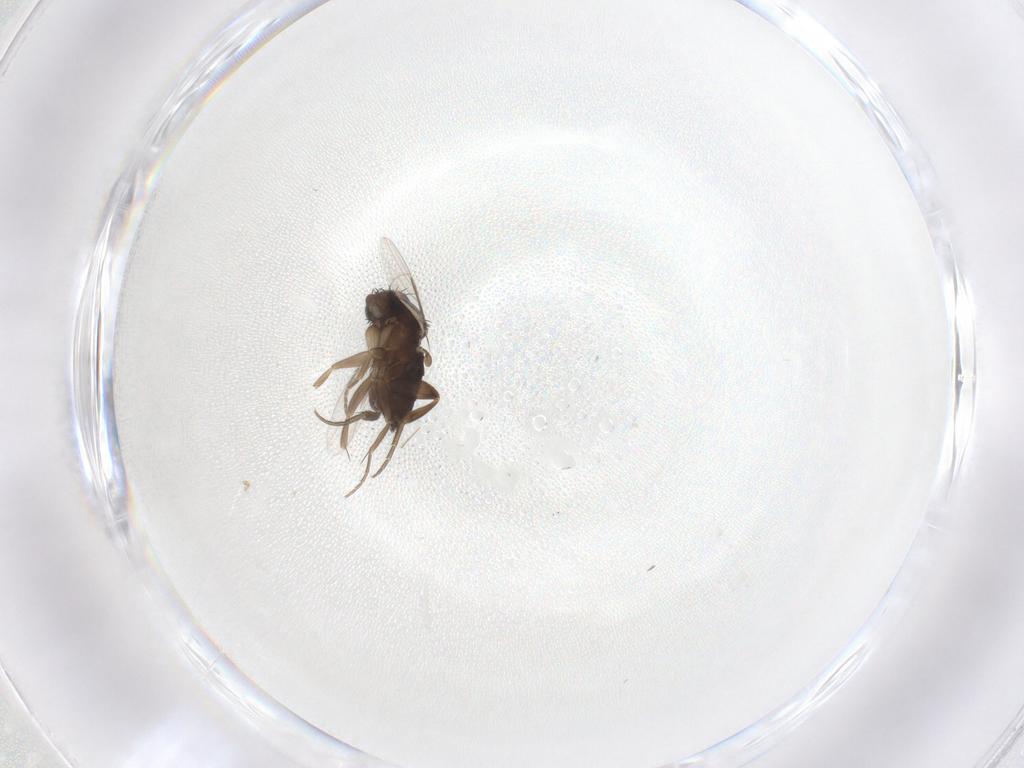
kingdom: Animalia
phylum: Arthropoda
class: Insecta
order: Diptera
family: Phoridae
